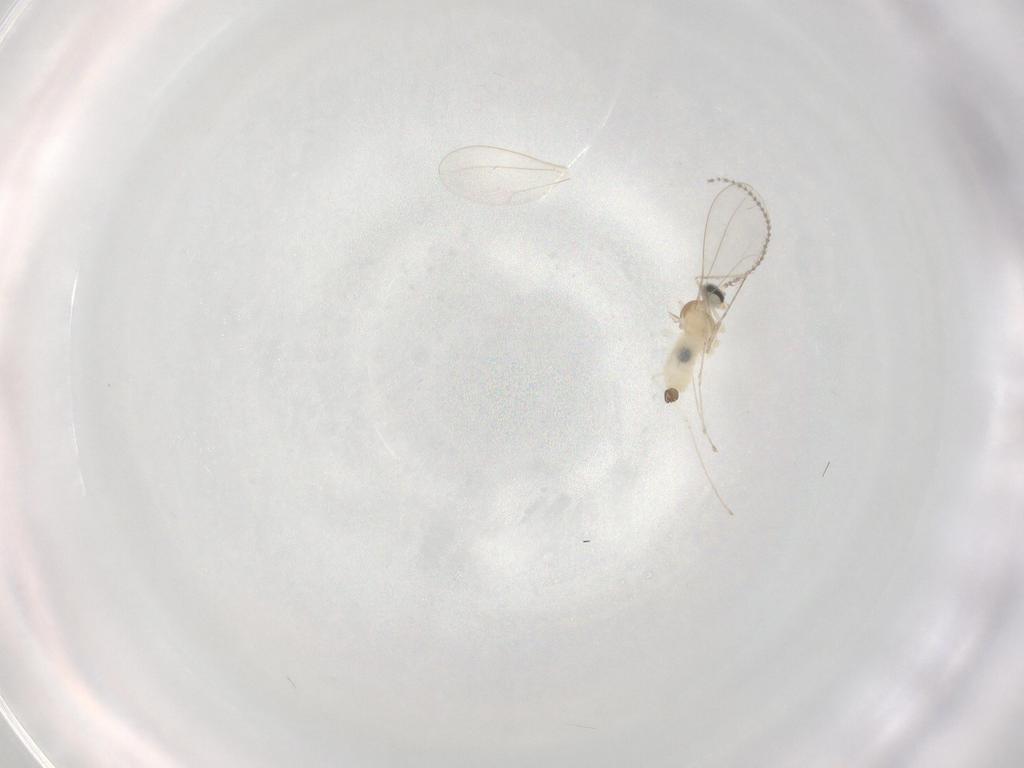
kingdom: Animalia
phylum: Arthropoda
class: Insecta
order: Diptera
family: Cecidomyiidae
